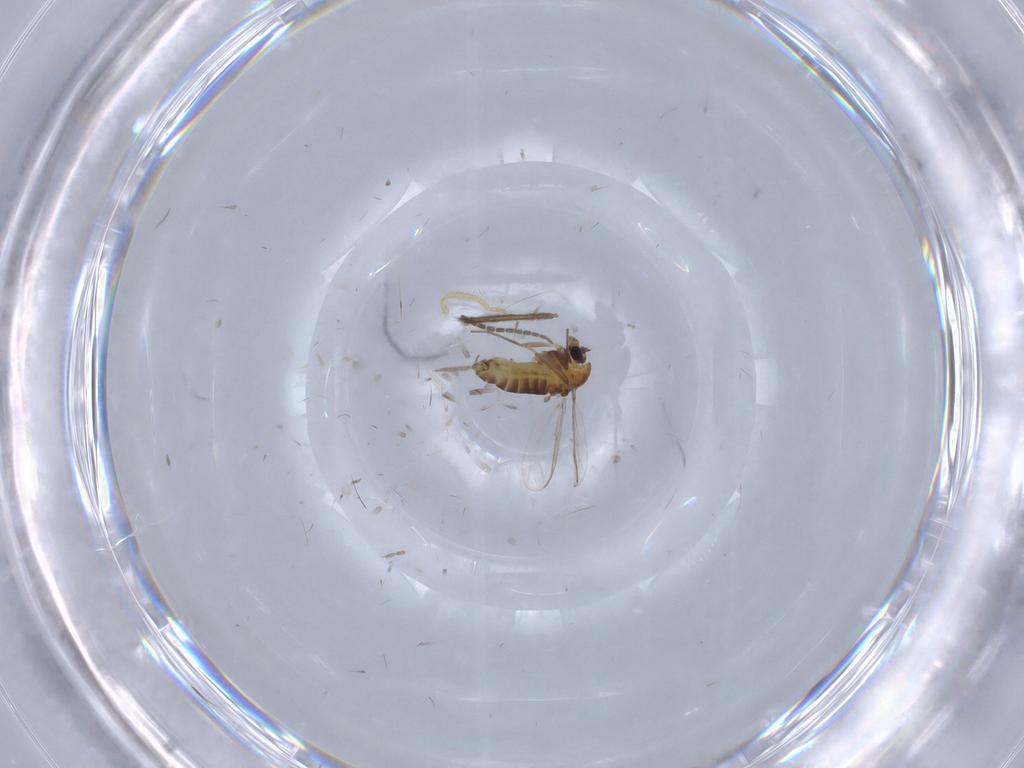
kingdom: Animalia
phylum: Arthropoda
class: Insecta
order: Diptera
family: Sciaridae
